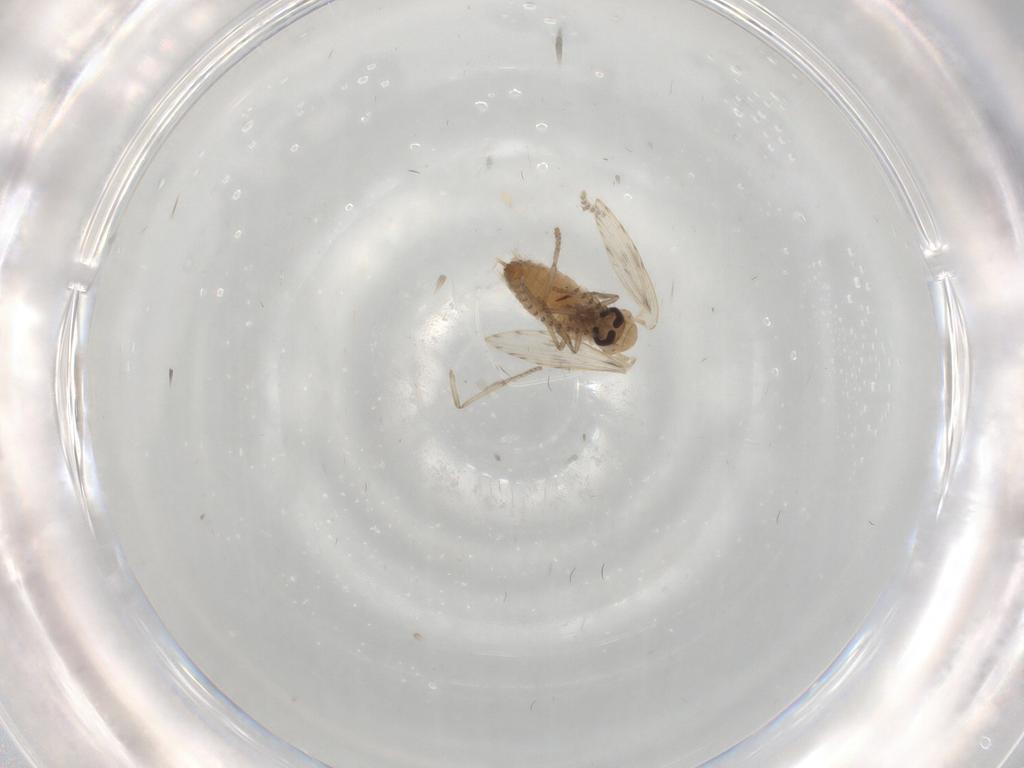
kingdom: Animalia
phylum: Arthropoda
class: Insecta
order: Diptera
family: Psychodidae
